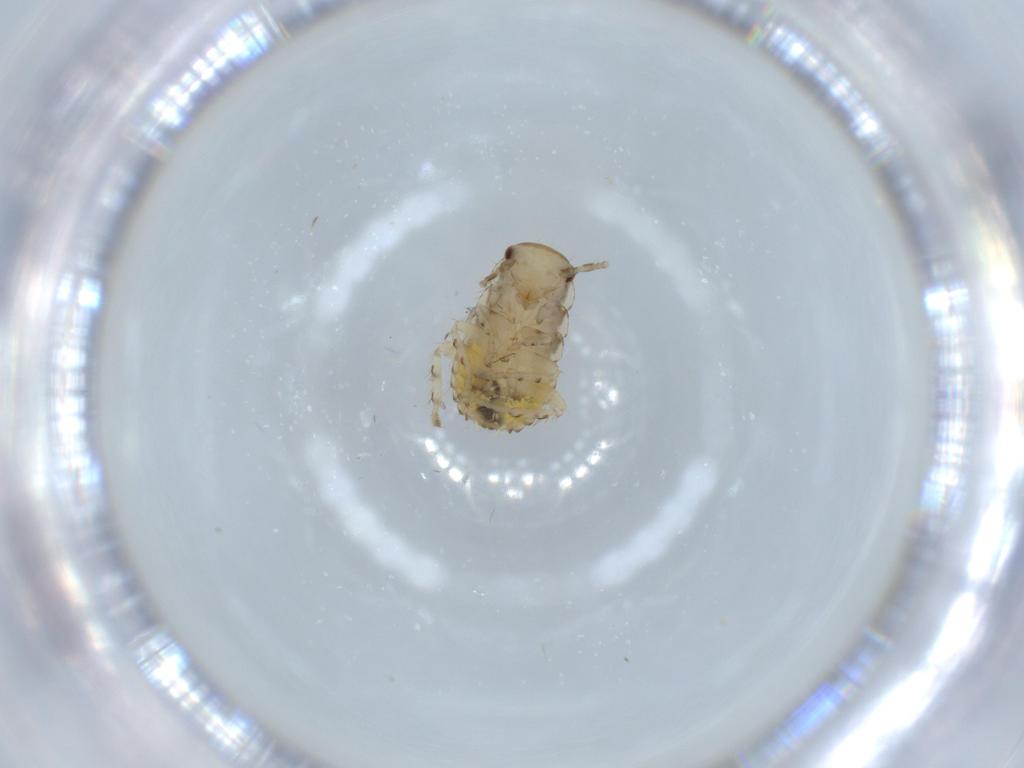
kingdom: Animalia
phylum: Arthropoda
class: Insecta
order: Blattodea
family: Ectobiidae
